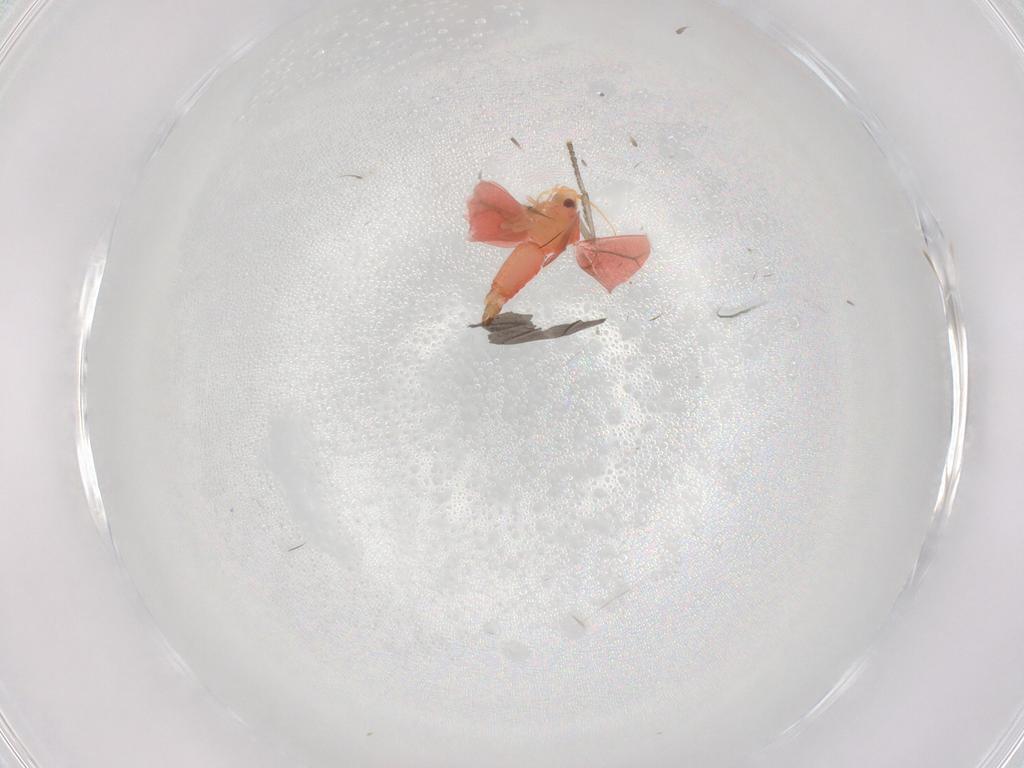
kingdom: Animalia
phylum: Arthropoda
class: Insecta
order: Hemiptera
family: Aleyrodidae
